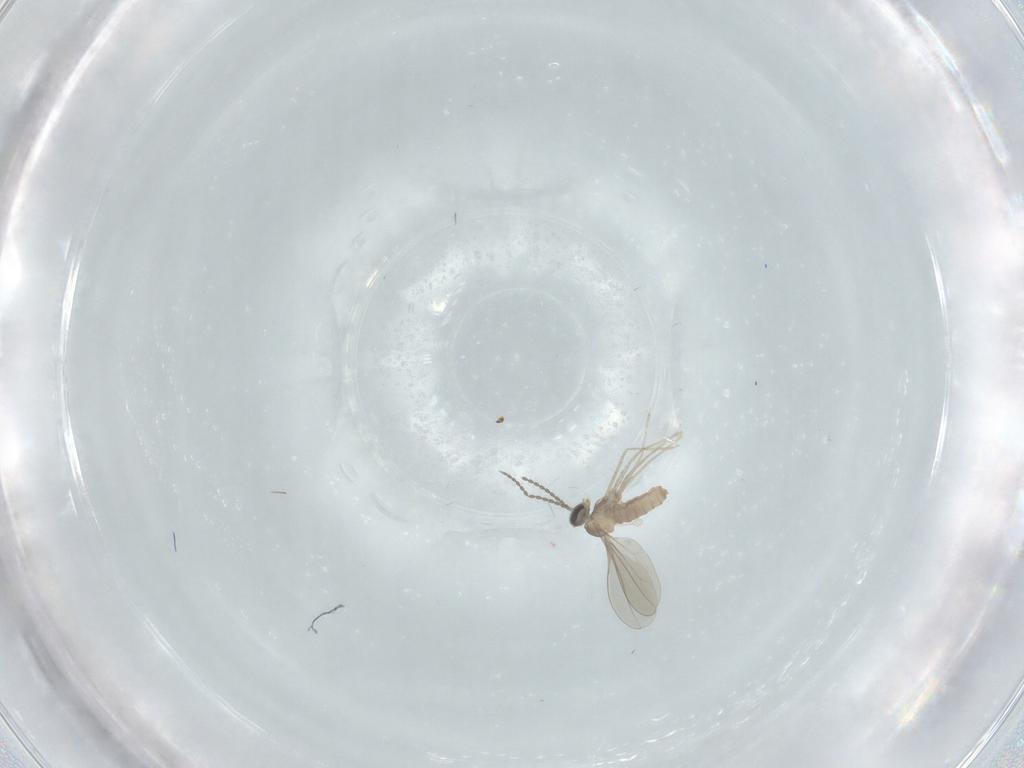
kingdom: Animalia
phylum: Arthropoda
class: Insecta
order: Diptera
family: Cecidomyiidae
